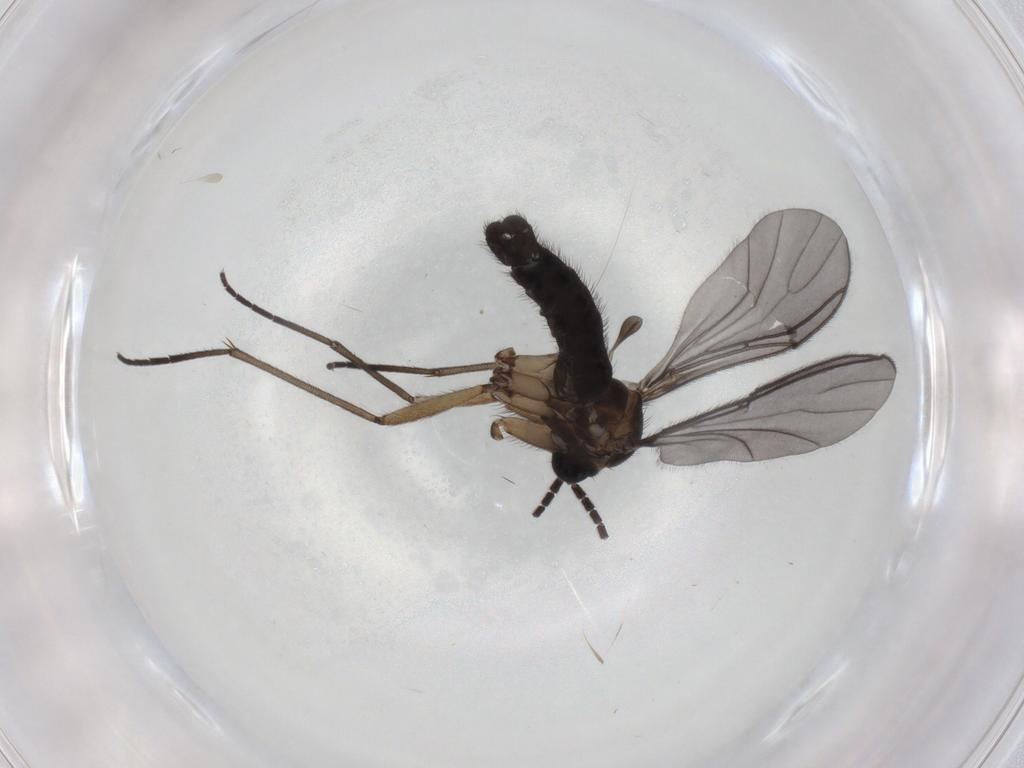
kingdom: Animalia
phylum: Arthropoda
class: Insecta
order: Diptera
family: Sciaridae
